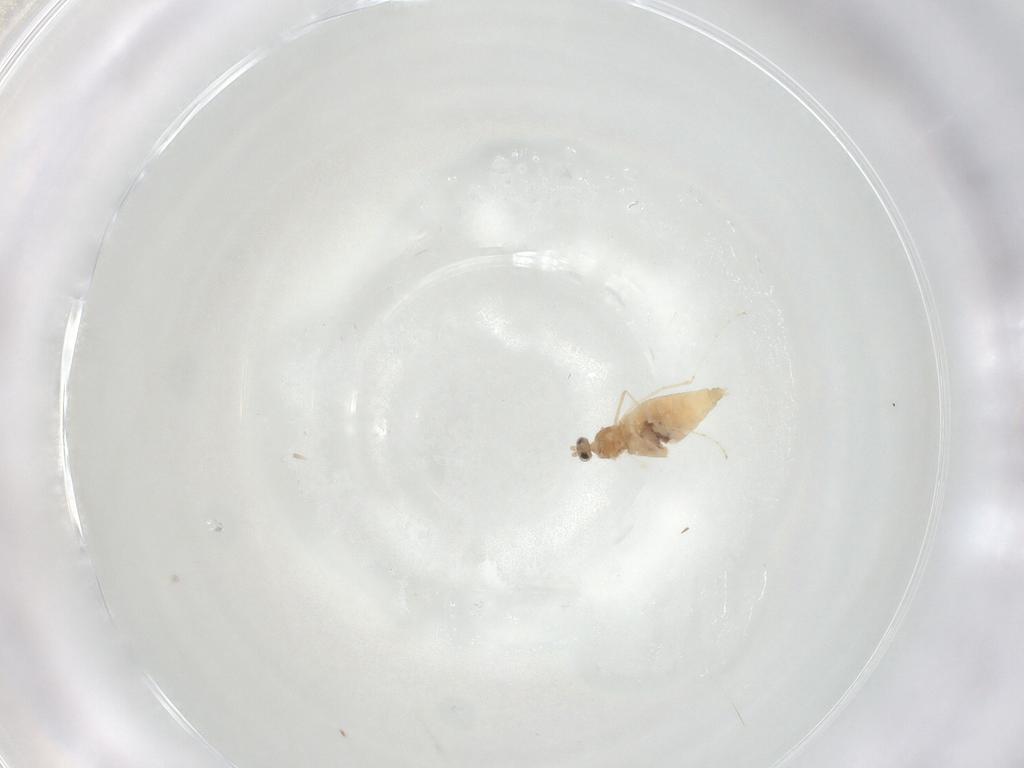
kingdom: Animalia
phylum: Arthropoda
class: Insecta
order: Diptera
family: Cecidomyiidae
